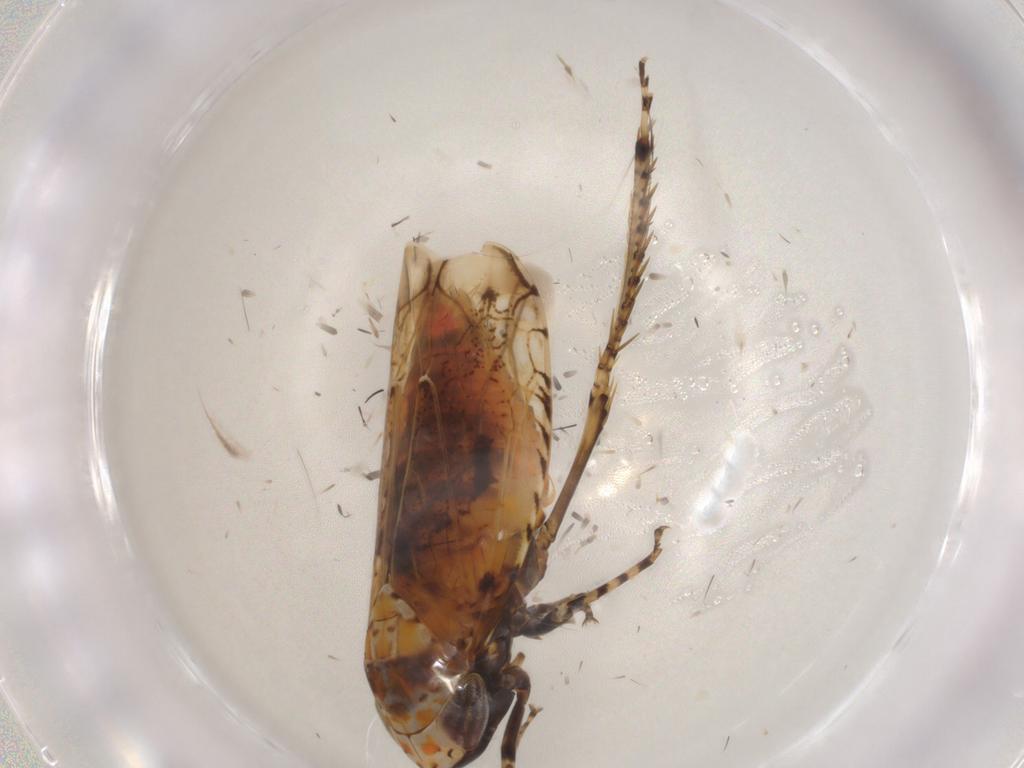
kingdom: Animalia
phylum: Arthropoda
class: Insecta
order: Hemiptera
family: Cicadellidae
